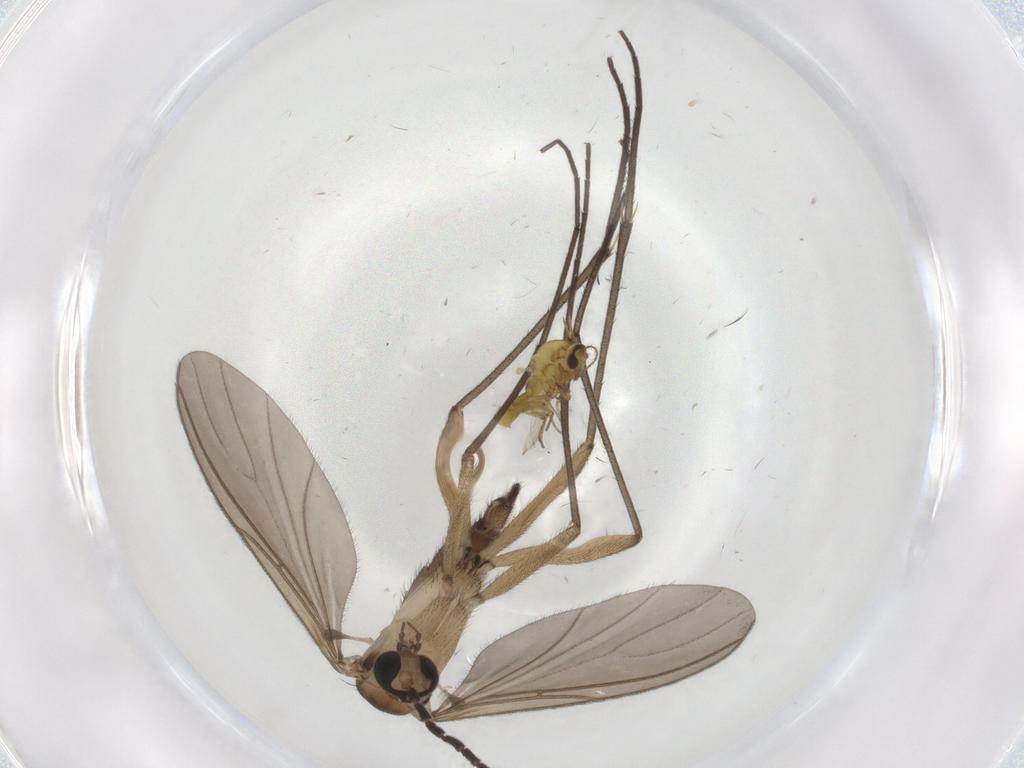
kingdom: Animalia
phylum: Arthropoda
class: Insecta
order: Diptera
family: Ceratopogonidae
